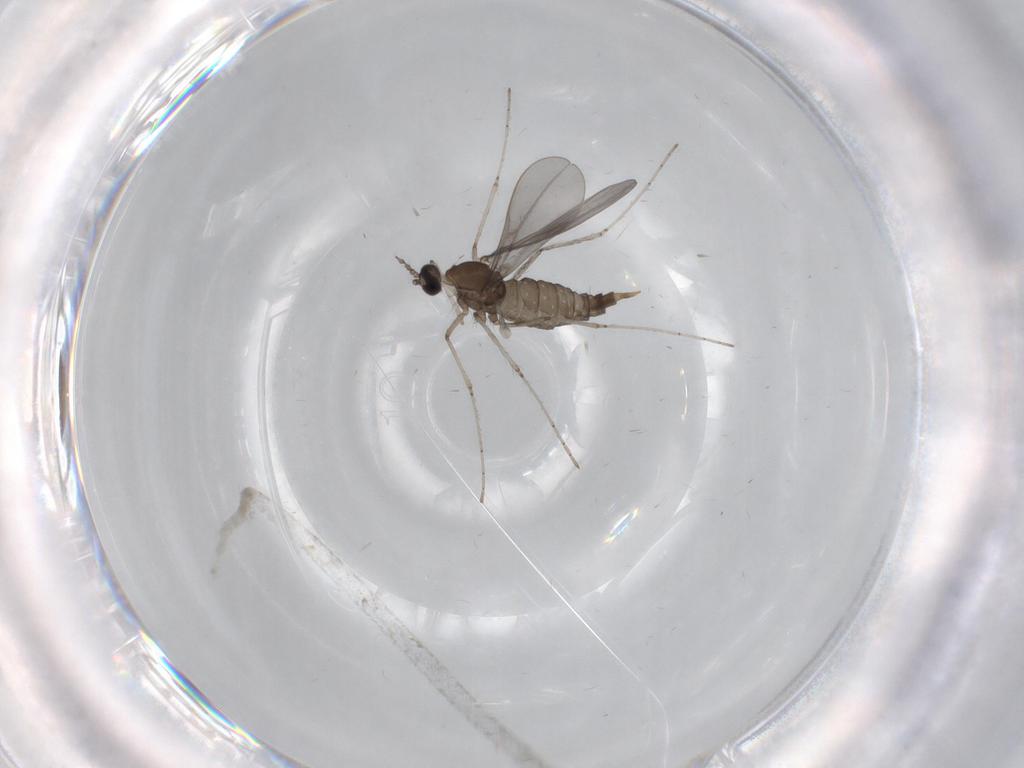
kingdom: Animalia
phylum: Arthropoda
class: Insecta
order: Diptera
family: Cecidomyiidae
